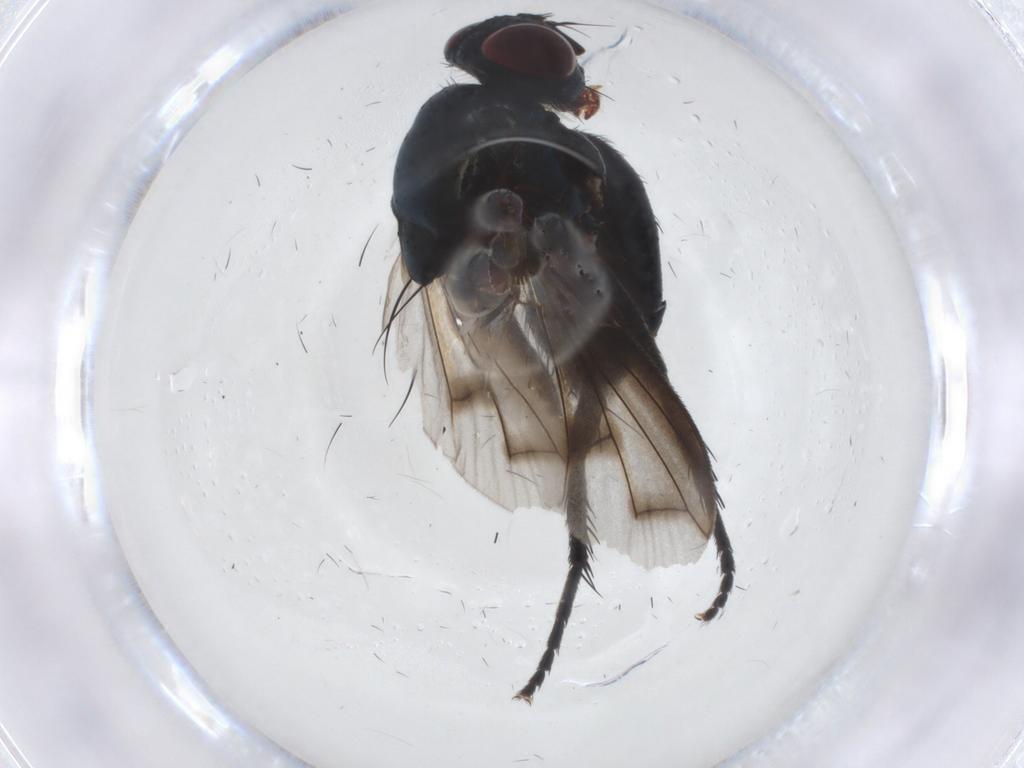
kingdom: Animalia
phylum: Arthropoda
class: Insecta
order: Diptera
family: Tachinidae
